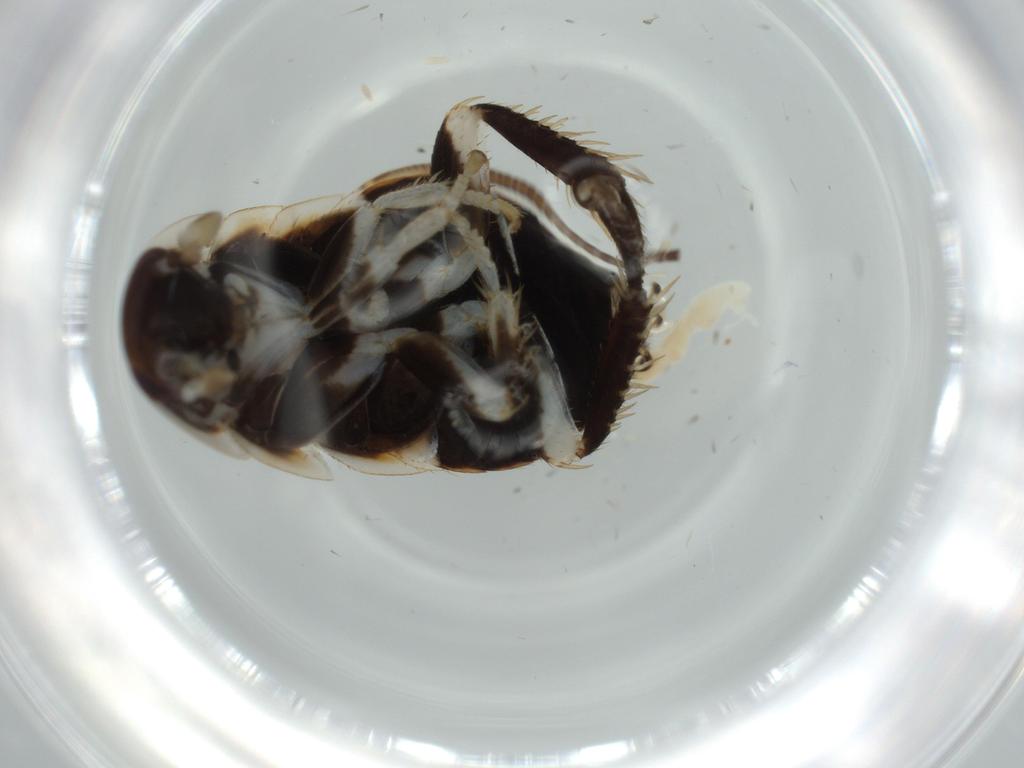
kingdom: Animalia
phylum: Arthropoda
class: Insecta
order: Blattodea
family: Ectobiidae
